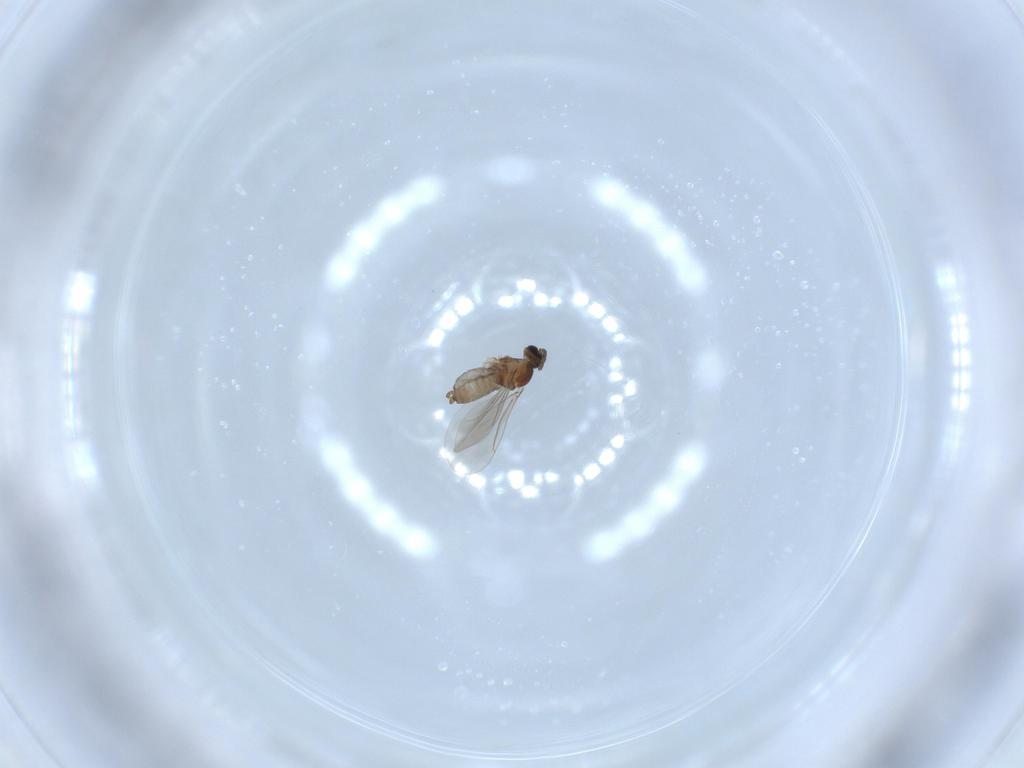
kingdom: Animalia
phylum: Arthropoda
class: Insecta
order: Diptera
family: Cecidomyiidae
